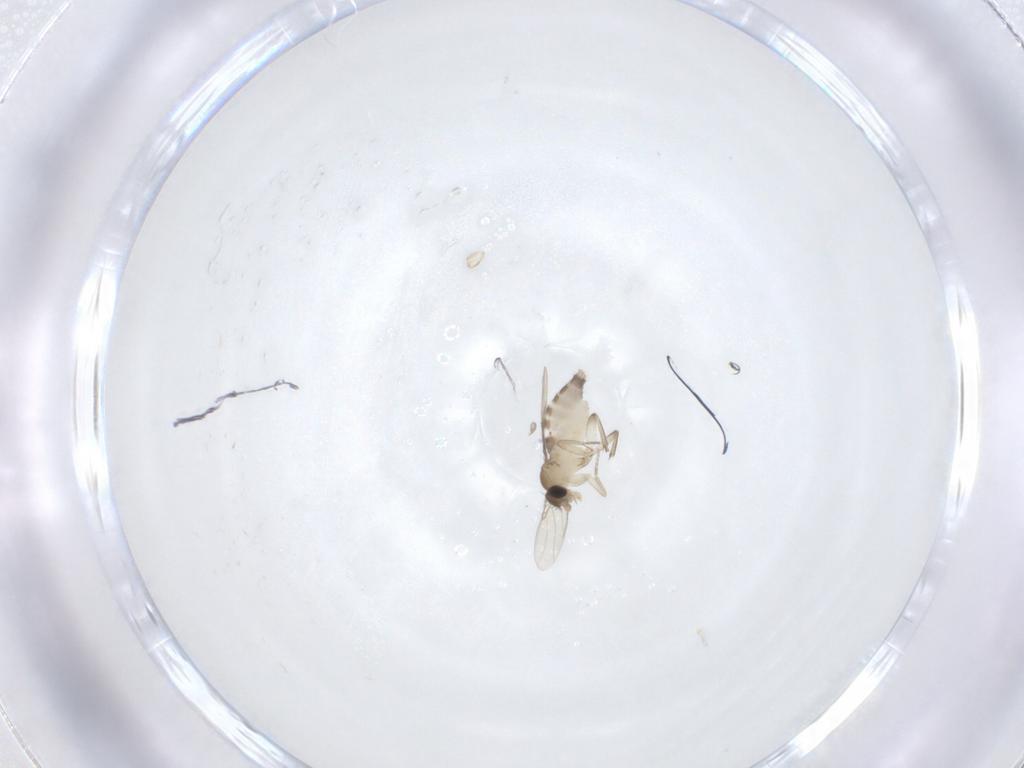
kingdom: Animalia
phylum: Arthropoda
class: Insecta
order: Diptera
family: Phoridae
